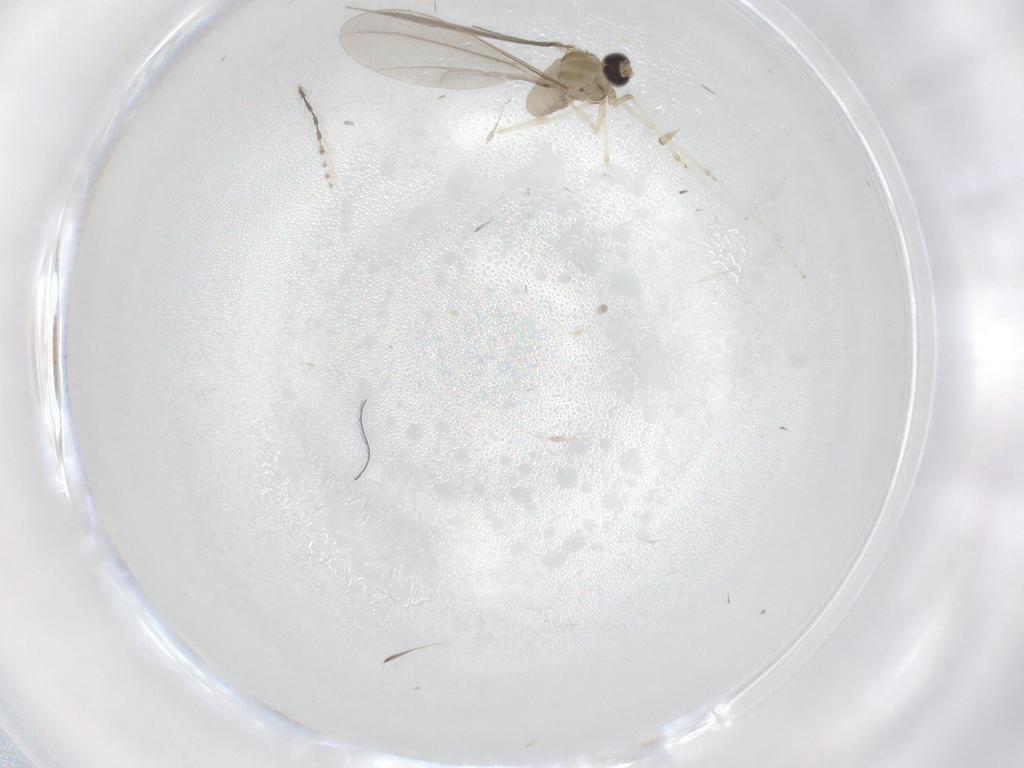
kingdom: Animalia
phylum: Arthropoda
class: Insecta
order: Diptera
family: Cecidomyiidae
